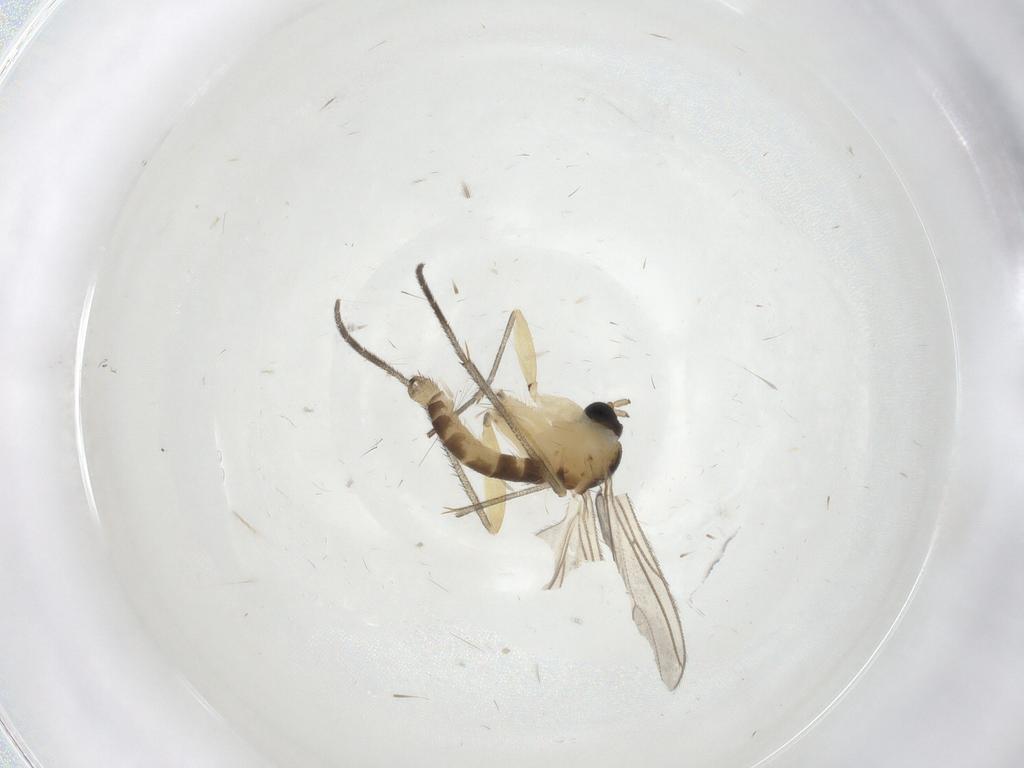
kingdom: Animalia
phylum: Arthropoda
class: Insecta
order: Diptera
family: Sciaridae
